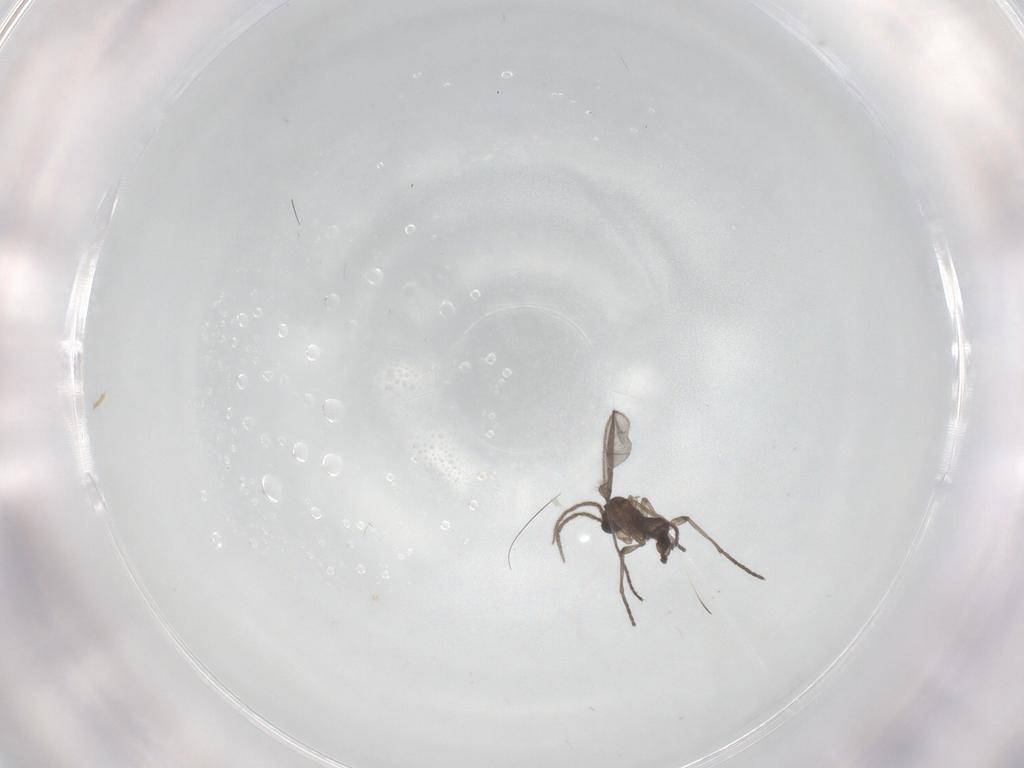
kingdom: Animalia
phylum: Arthropoda
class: Insecta
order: Diptera
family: Sciaridae
